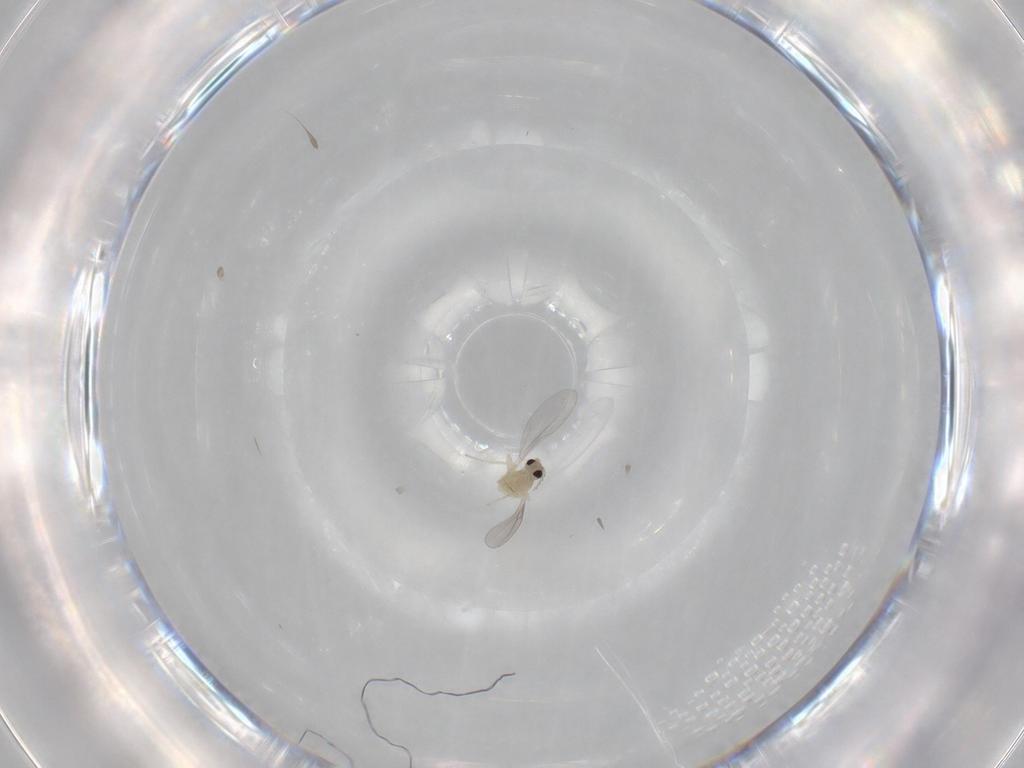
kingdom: Animalia
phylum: Arthropoda
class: Insecta
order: Diptera
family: Cecidomyiidae
